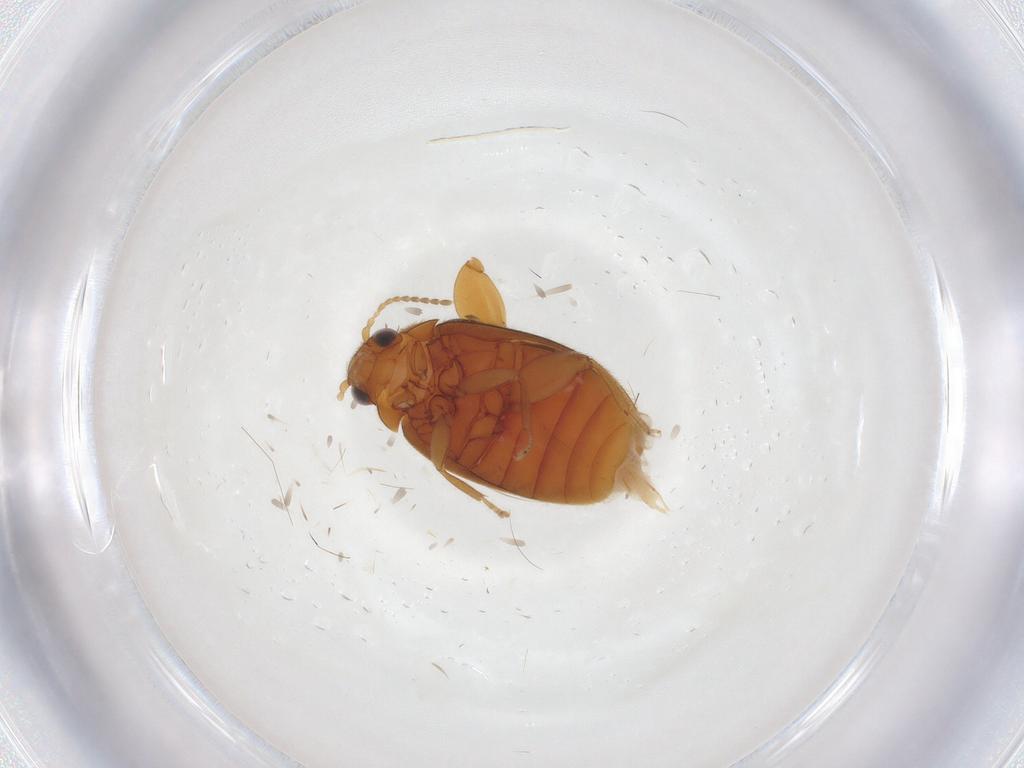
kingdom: Animalia
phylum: Arthropoda
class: Insecta
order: Coleoptera
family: Scirtidae
